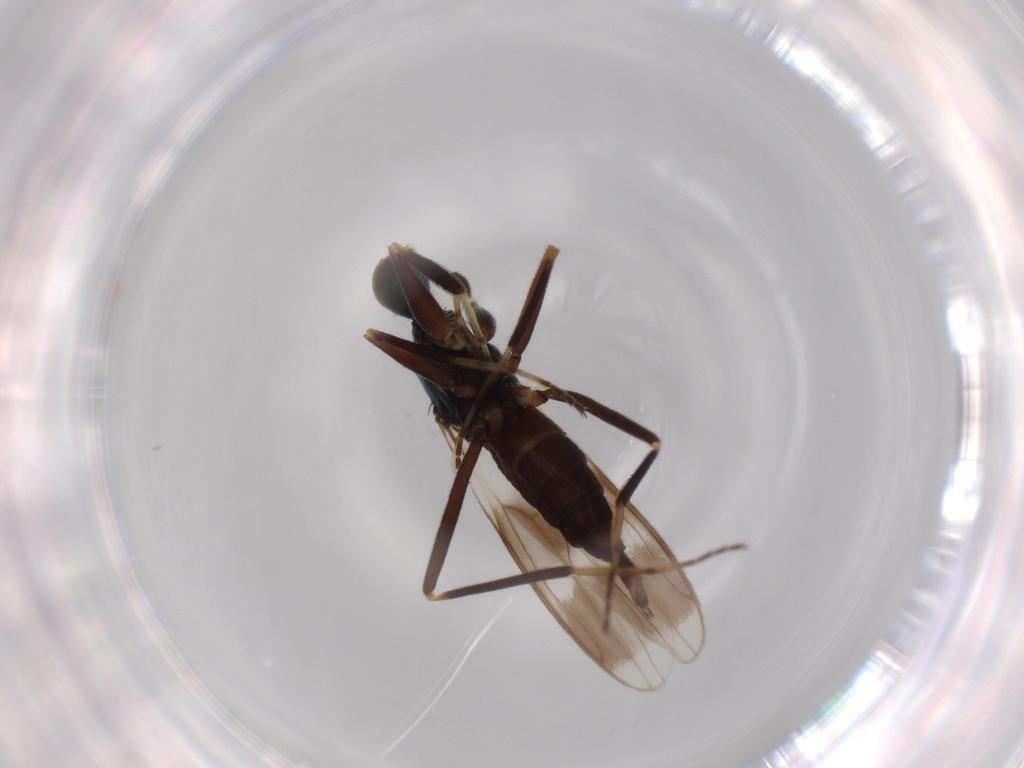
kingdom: Animalia
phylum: Arthropoda
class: Insecta
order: Diptera
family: Hybotidae
